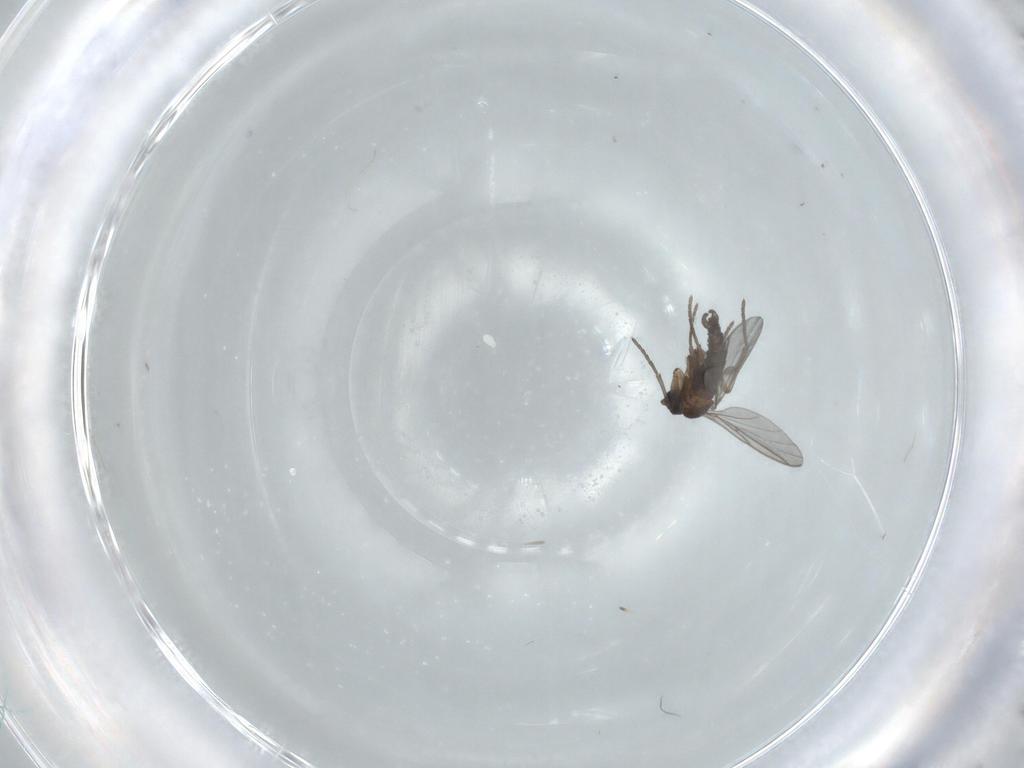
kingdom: Animalia
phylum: Arthropoda
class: Insecta
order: Diptera
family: Chironomidae
